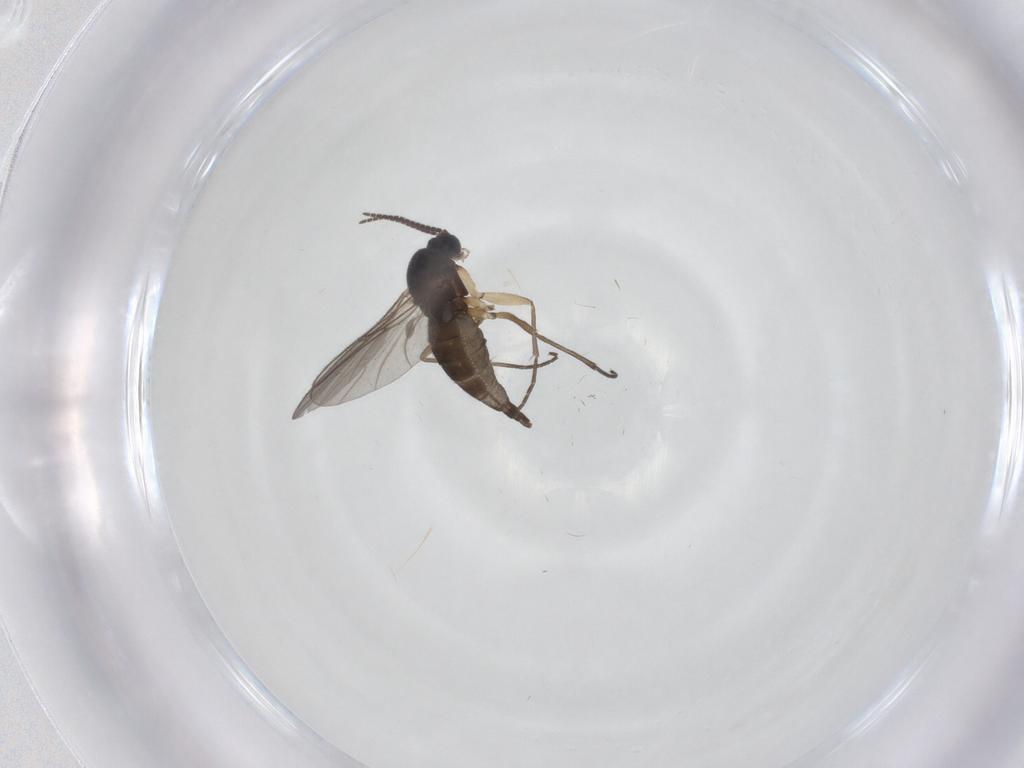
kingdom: Animalia
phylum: Arthropoda
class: Insecta
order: Diptera
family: Sciaridae
